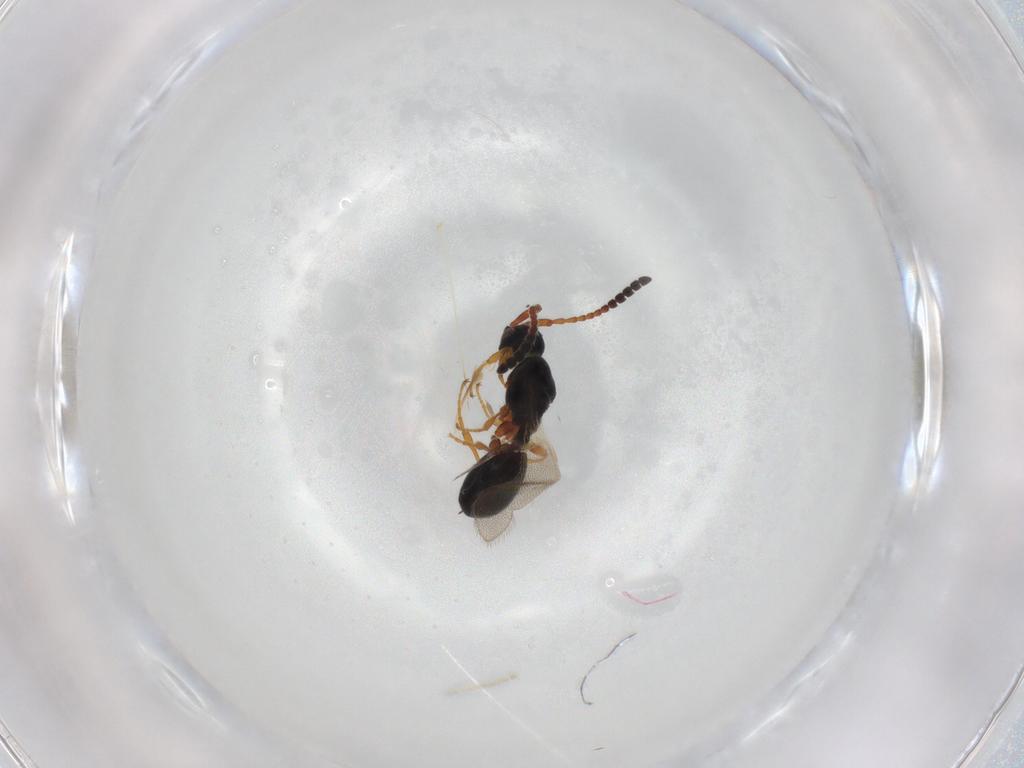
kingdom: Animalia
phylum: Arthropoda
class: Insecta
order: Hymenoptera
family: Diapriidae
